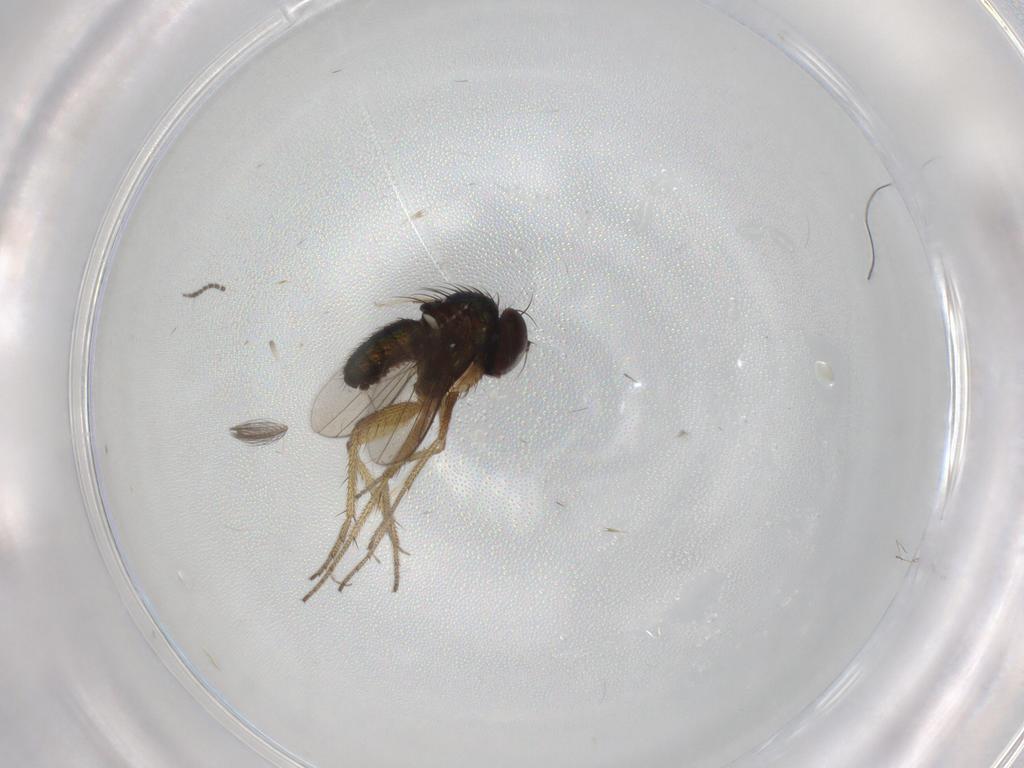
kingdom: Animalia
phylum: Arthropoda
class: Insecta
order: Diptera
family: Cecidomyiidae
